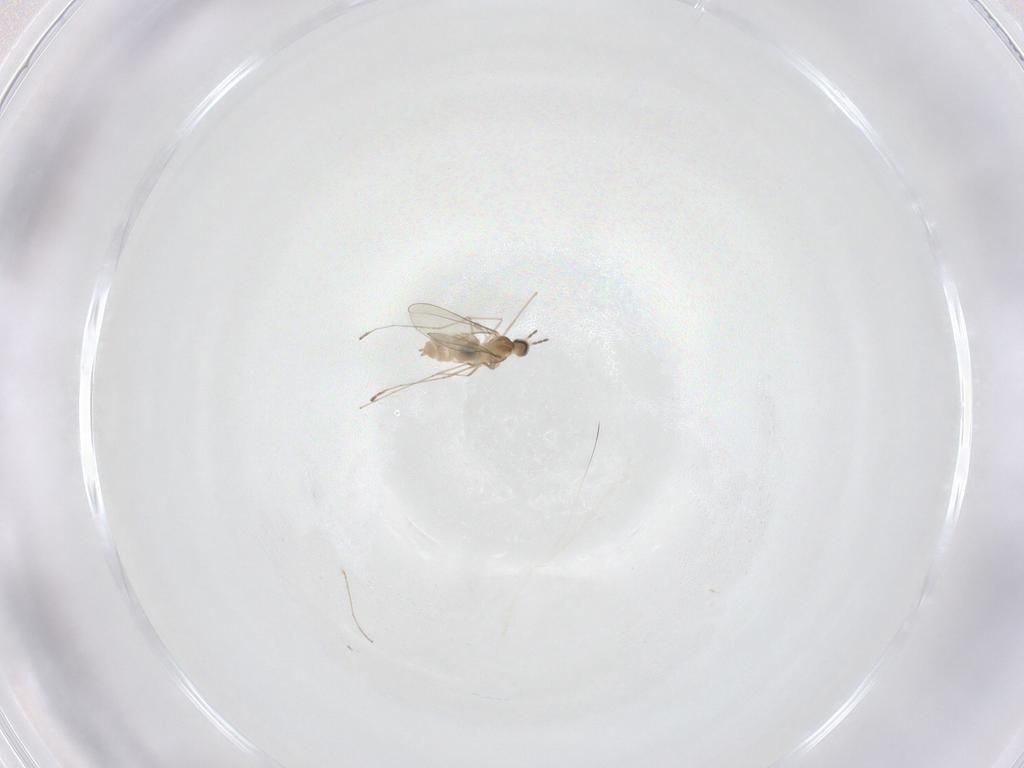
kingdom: Animalia
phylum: Arthropoda
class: Insecta
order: Diptera
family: Cecidomyiidae
